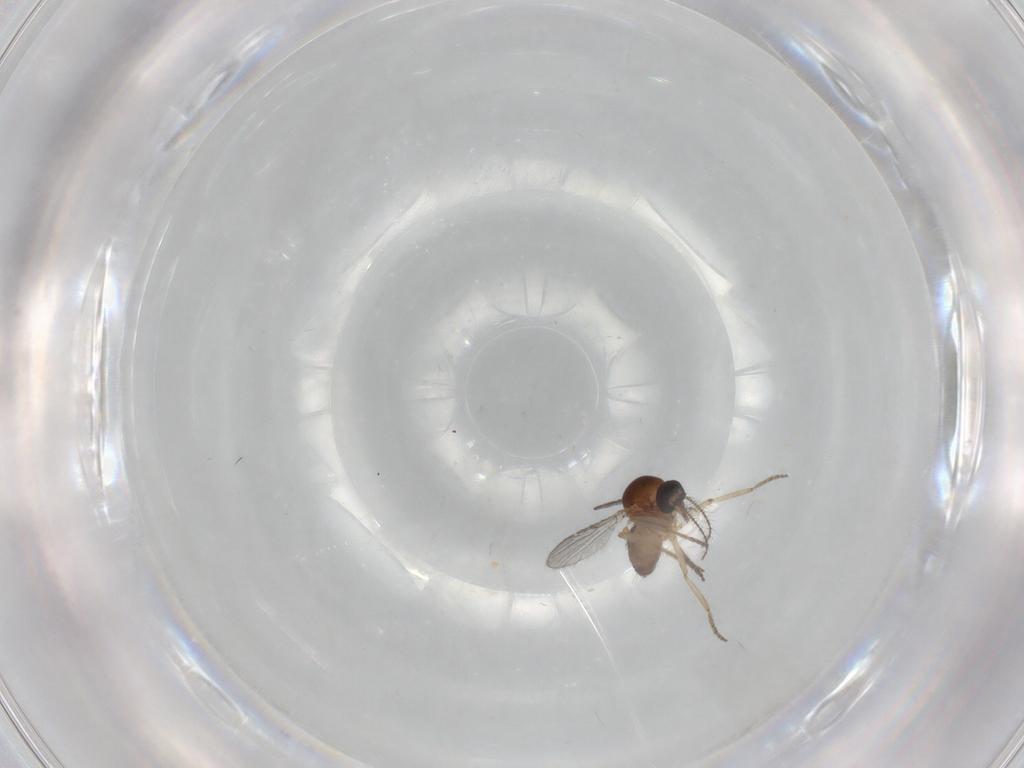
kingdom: Animalia
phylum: Arthropoda
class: Insecta
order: Diptera
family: Ceratopogonidae
